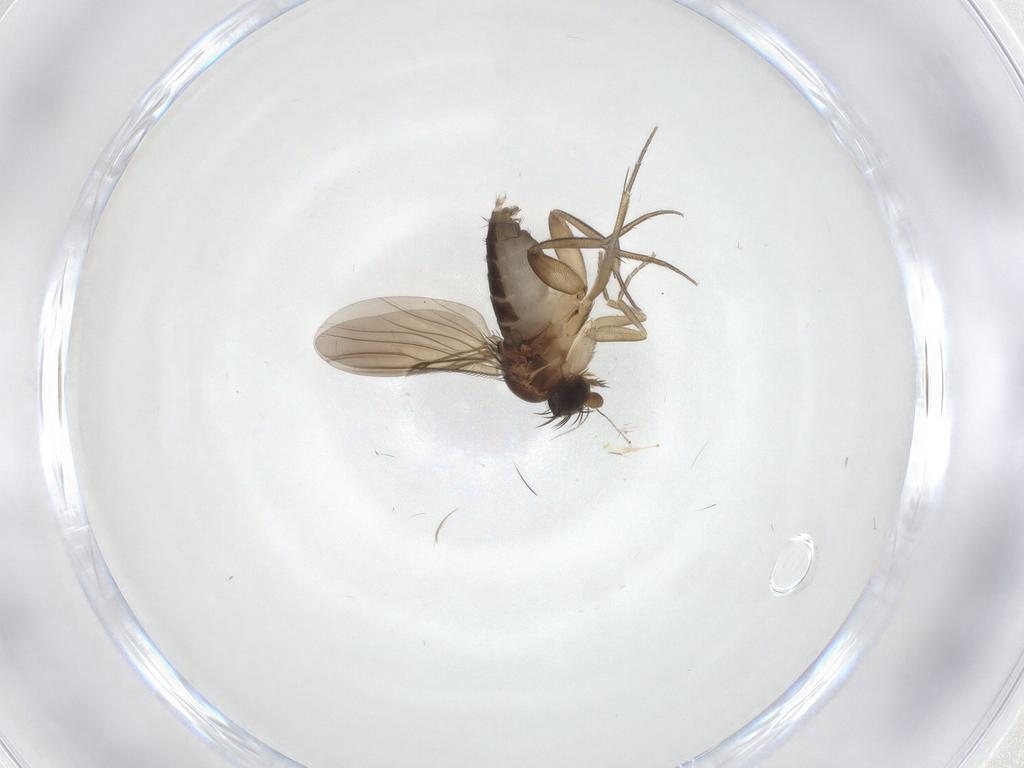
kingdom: Animalia
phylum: Arthropoda
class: Insecta
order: Diptera
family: Phoridae
